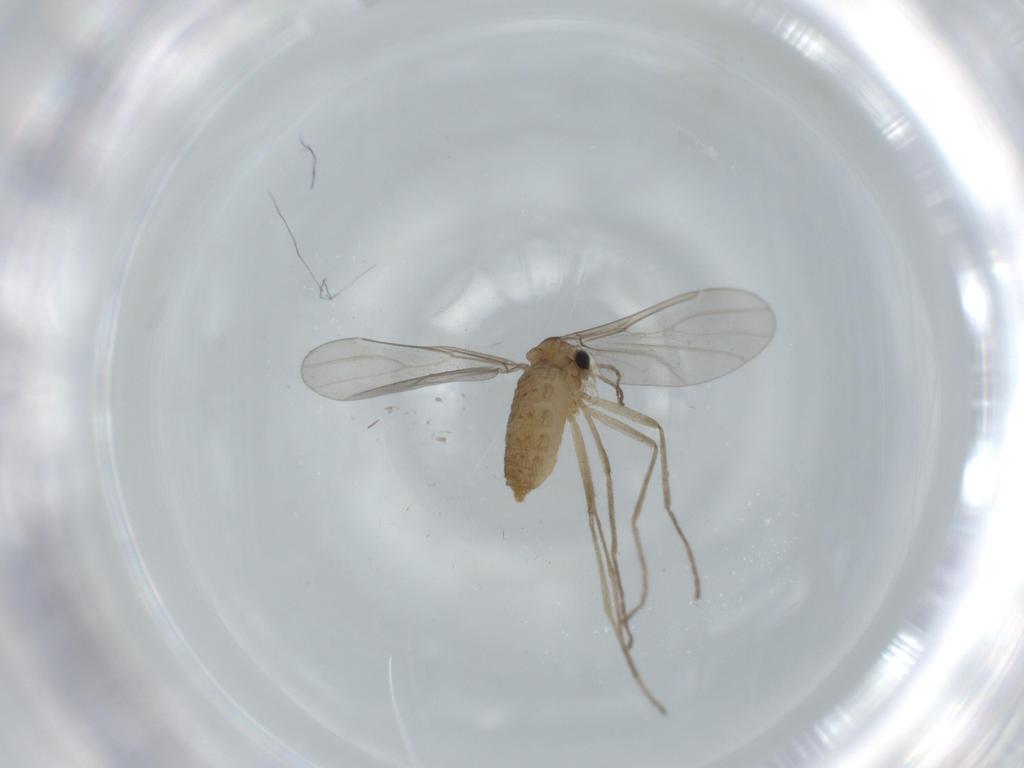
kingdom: Animalia
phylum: Arthropoda
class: Insecta
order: Diptera
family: Cecidomyiidae
